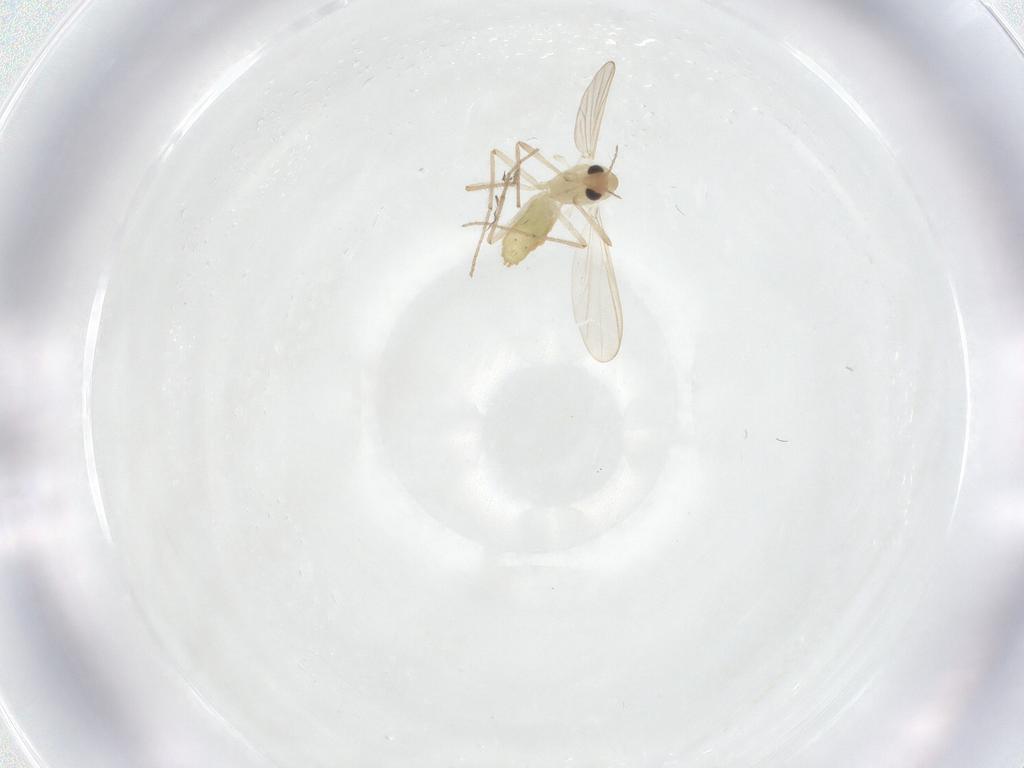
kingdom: Animalia
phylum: Arthropoda
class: Insecta
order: Diptera
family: Chironomidae
